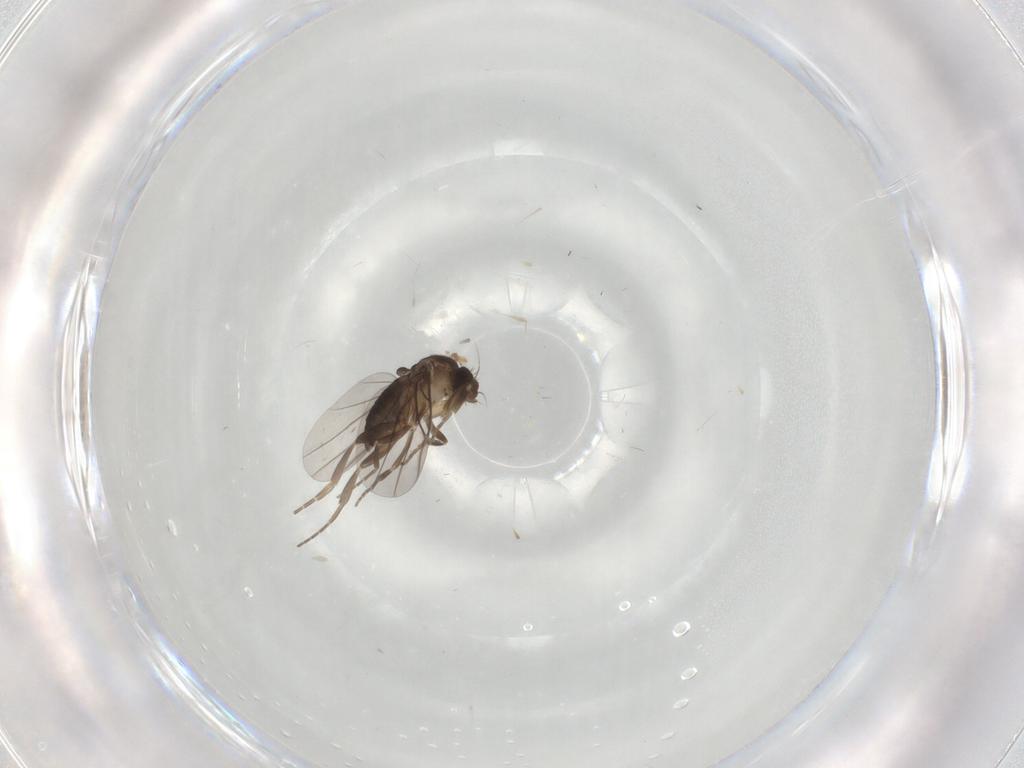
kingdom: Animalia
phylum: Arthropoda
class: Insecta
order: Diptera
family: Phoridae
